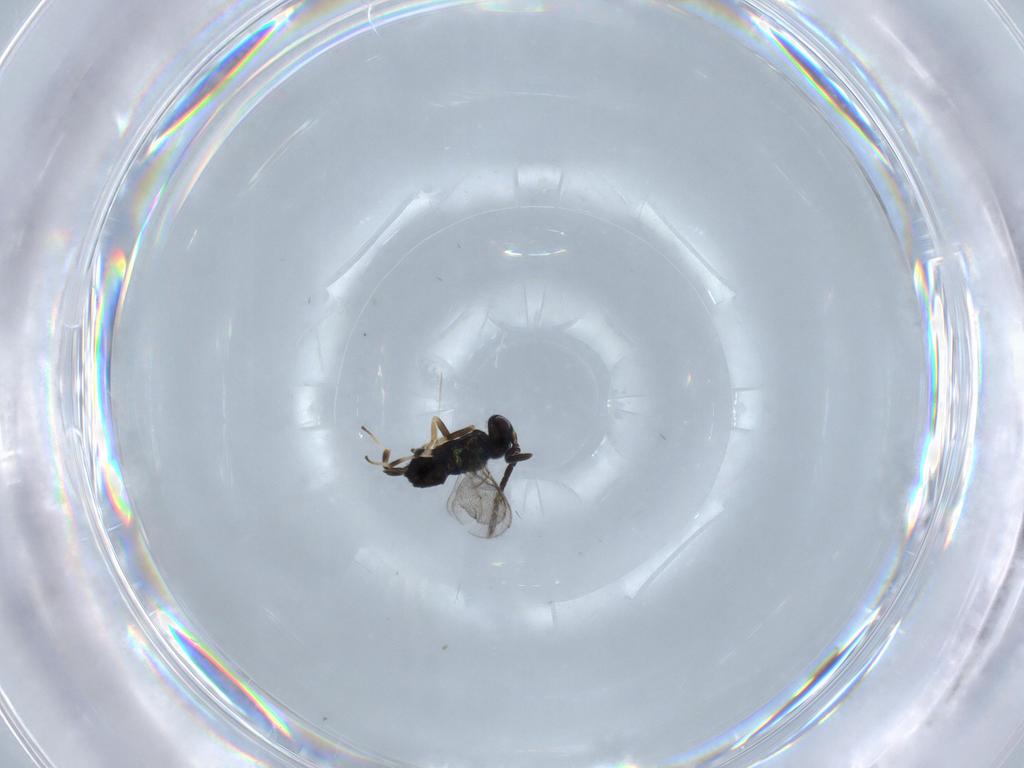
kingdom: Animalia
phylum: Arthropoda
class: Insecta
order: Hymenoptera
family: Eupelmidae
